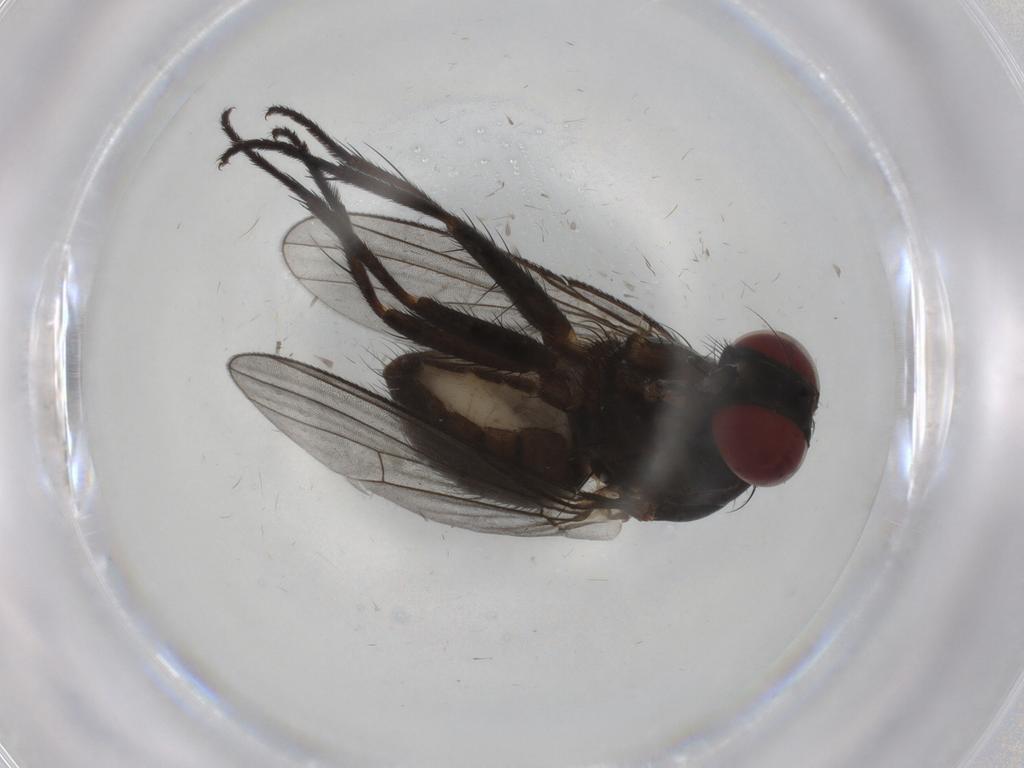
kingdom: Animalia
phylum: Arthropoda
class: Insecta
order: Diptera
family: Muscidae
